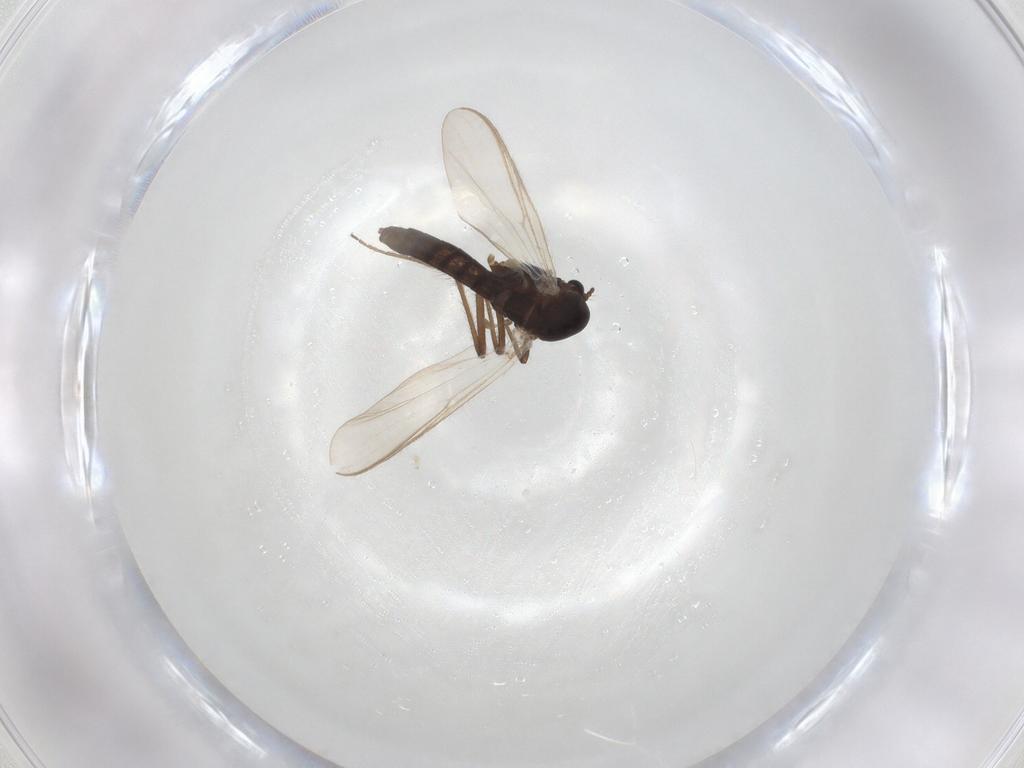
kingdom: Animalia
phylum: Arthropoda
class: Insecta
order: Diptera
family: Chironomidae
